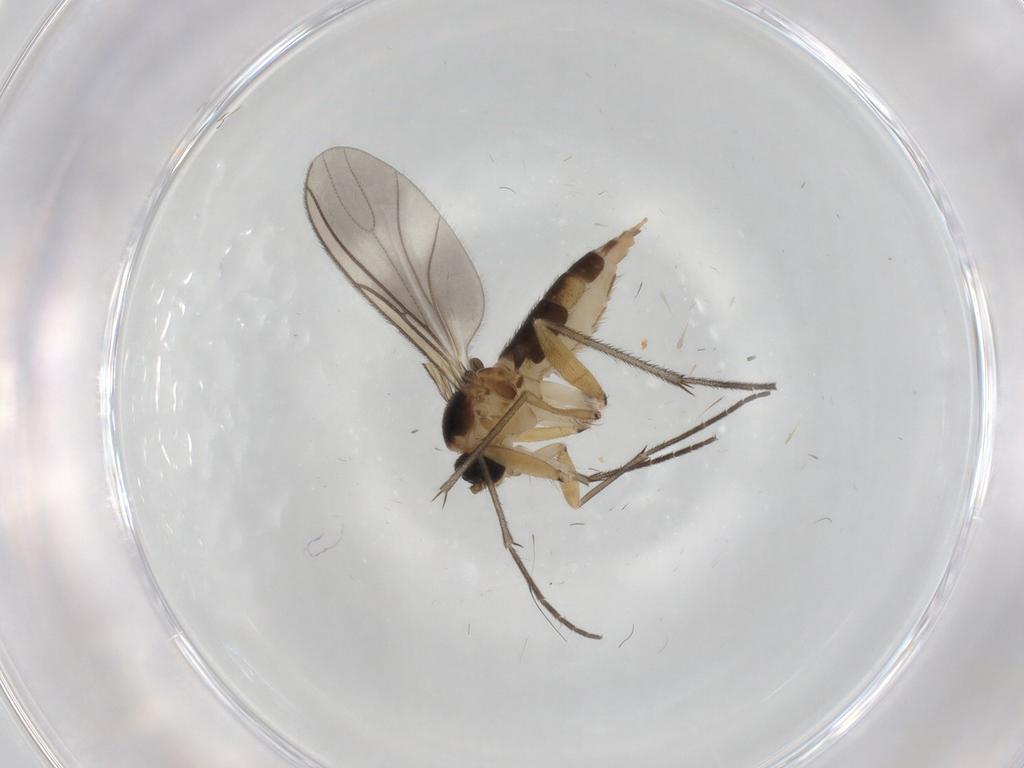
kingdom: Animalia
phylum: Arthropoda
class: Insecta
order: Diptera
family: Sciaridae
